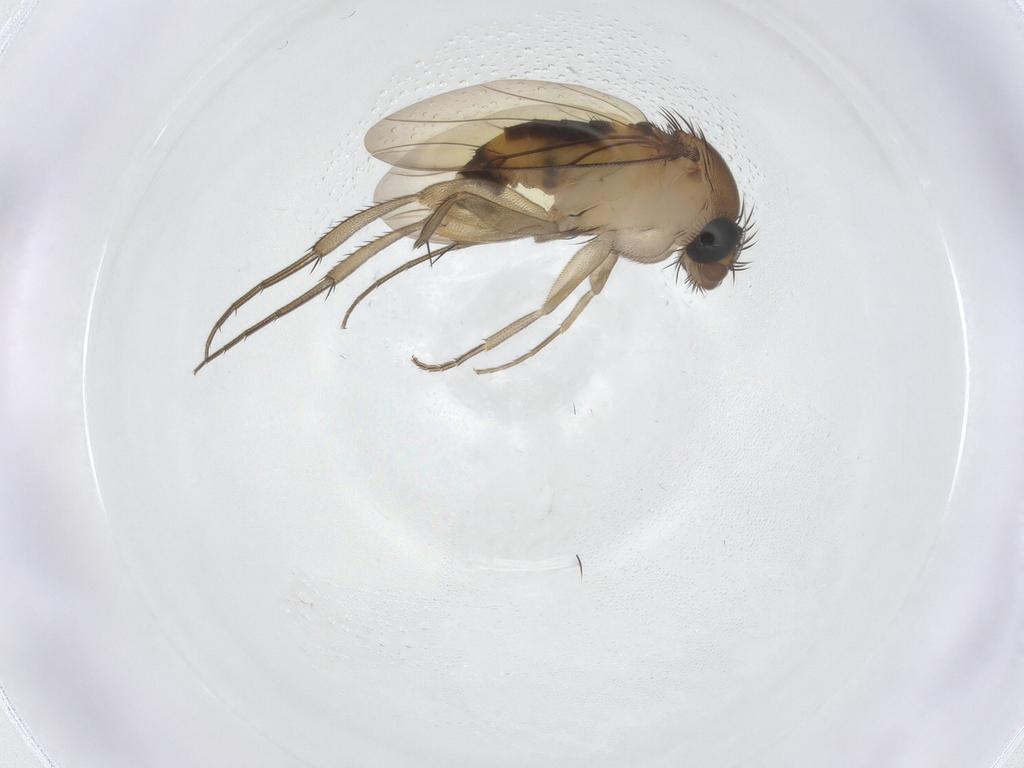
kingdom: Animalia
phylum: Arthropoda
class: Insecta
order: Diptera
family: Phoridae
